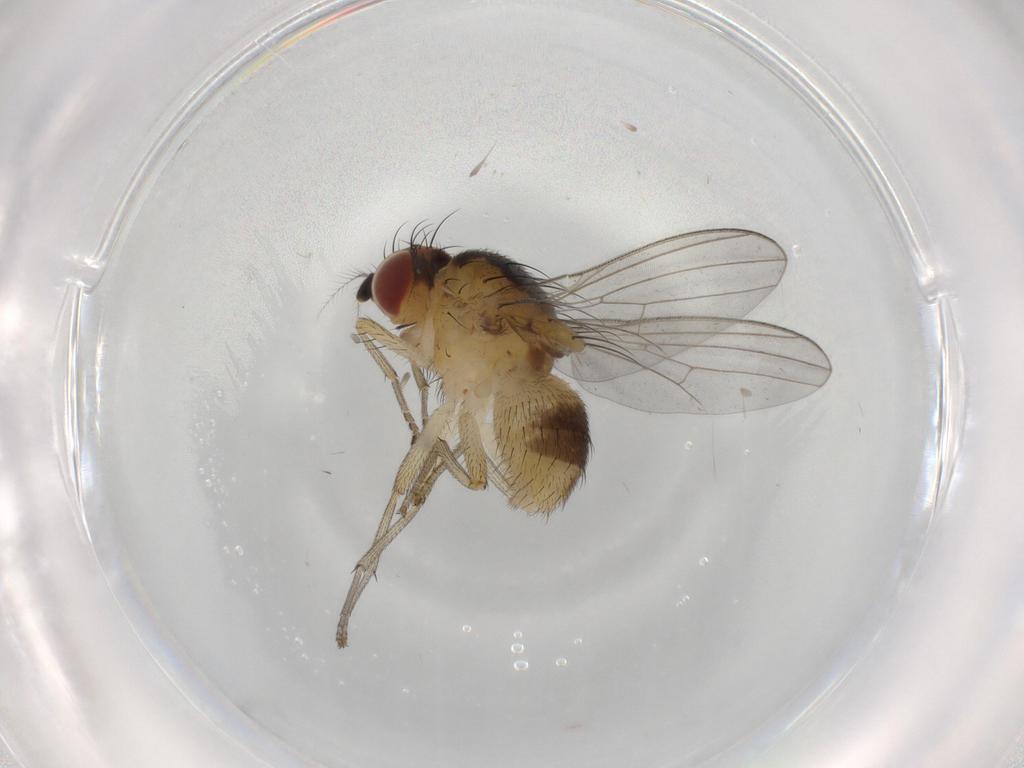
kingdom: Animalia
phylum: Arthropoda
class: Insecta
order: Diptera
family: Lauxaniidae
